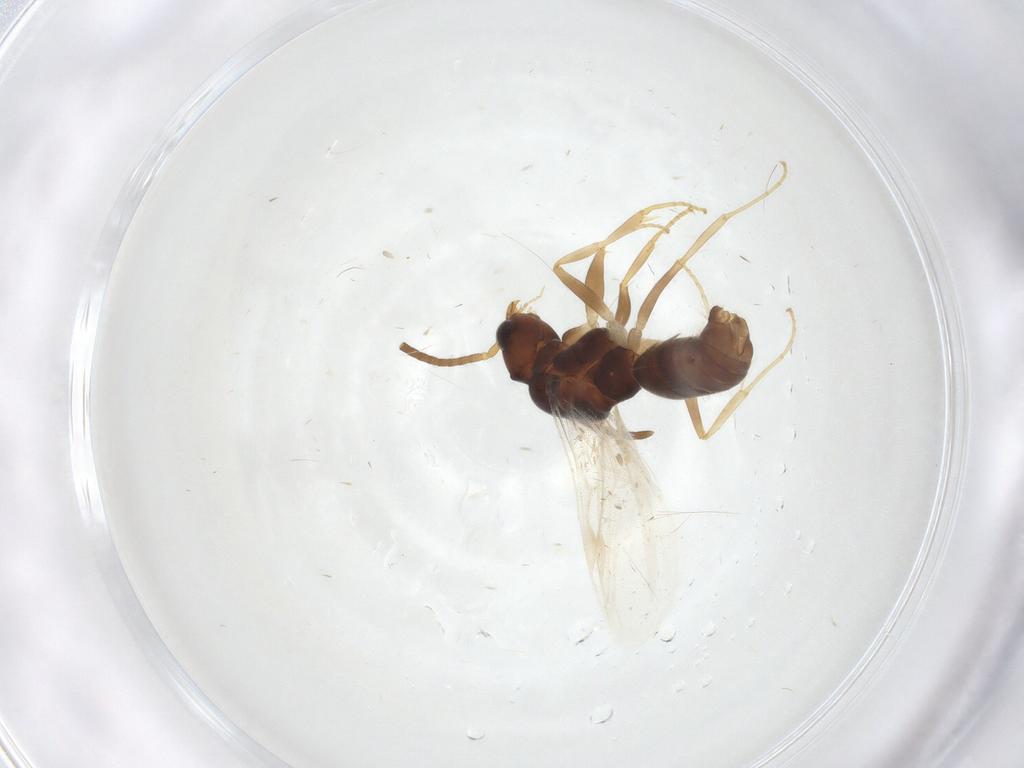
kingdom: Animalia
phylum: Arthropoda
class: Insecta
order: Hymenoptera
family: Formicidae
